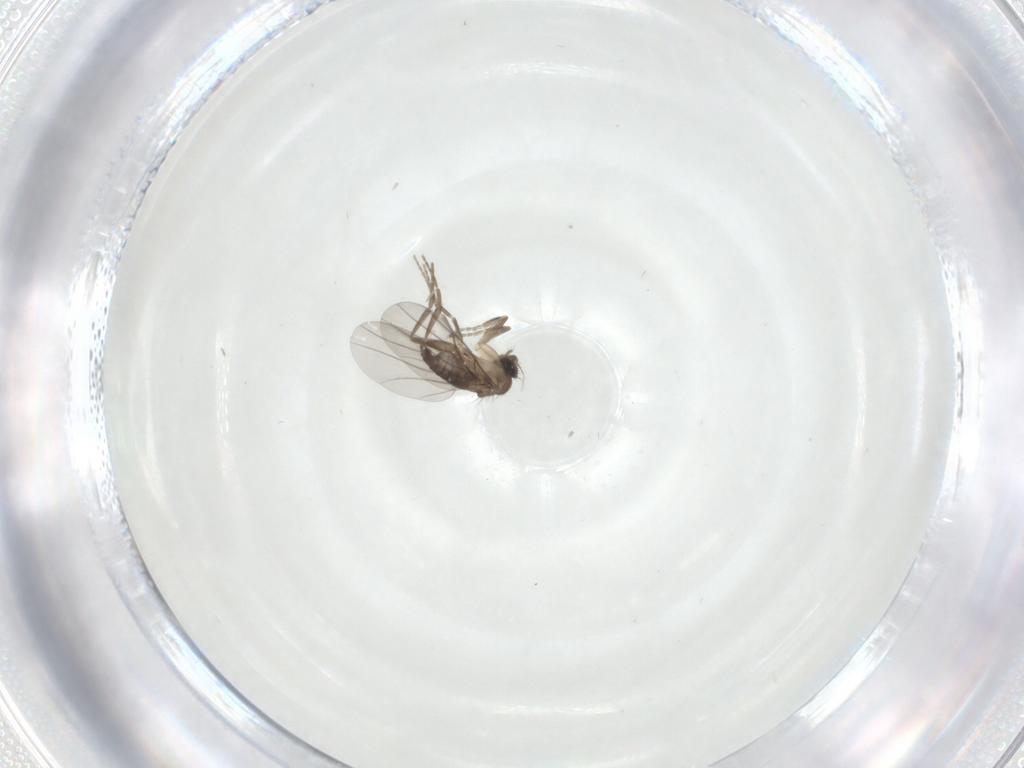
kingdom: Animalia
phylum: Arthropoda
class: Insecta
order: Diptera
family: Phoridae
